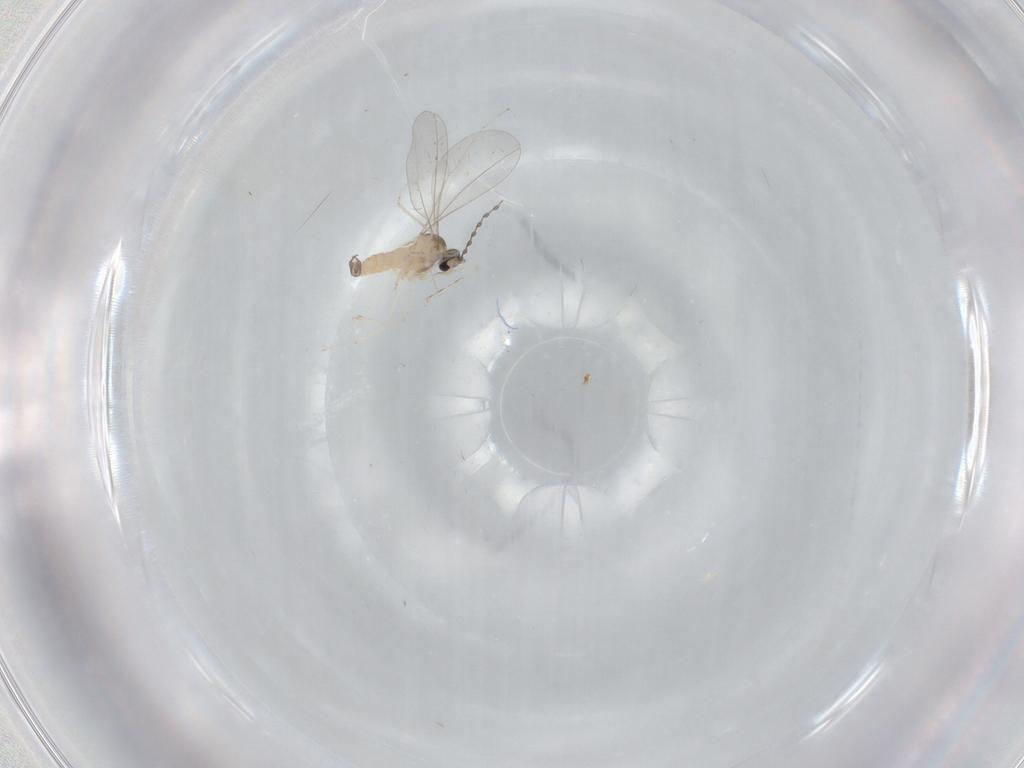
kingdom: Animalia
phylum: Arthropoda
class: Insecta
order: Diptera
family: Cecidomyiidae
